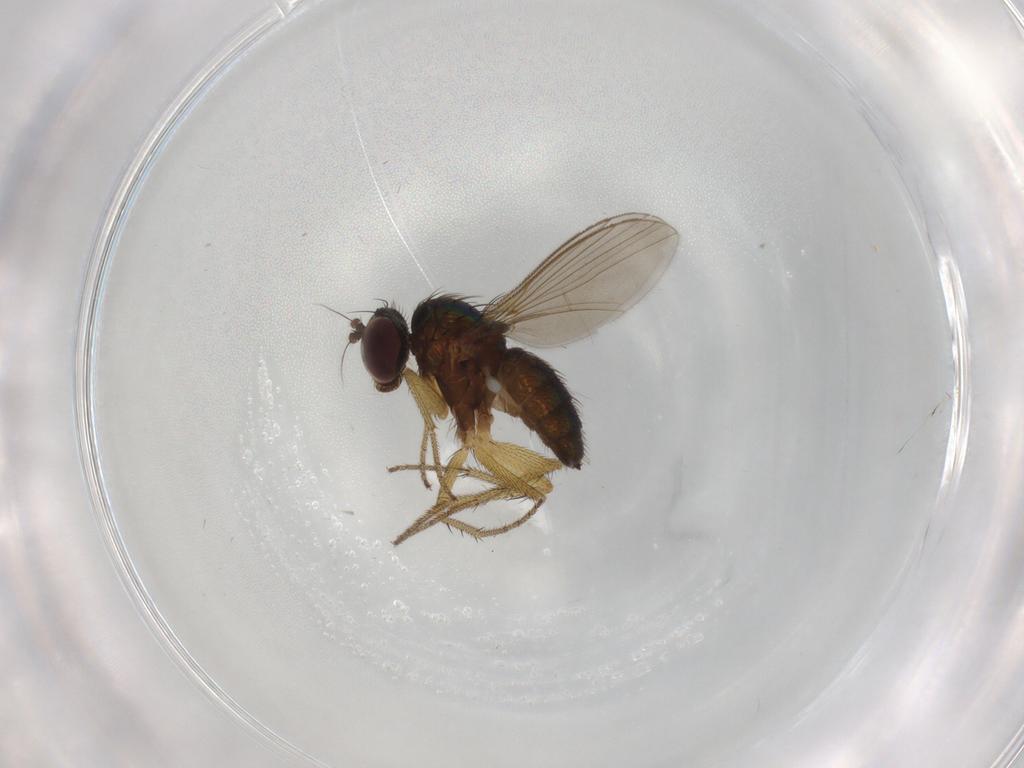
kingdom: Animalia
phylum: Arthropoda
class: Insecta
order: Diptera
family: Dolichopodidae
